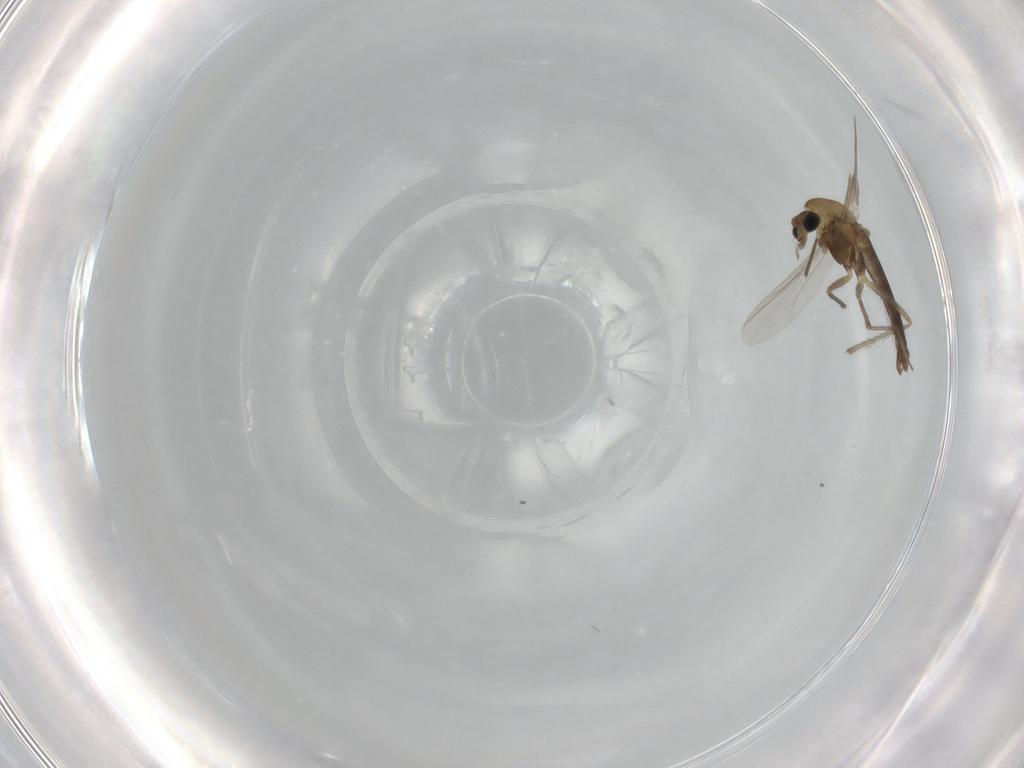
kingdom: Animalia
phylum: Arthropoda
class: Insecta
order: Diptera
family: Chironomidae
